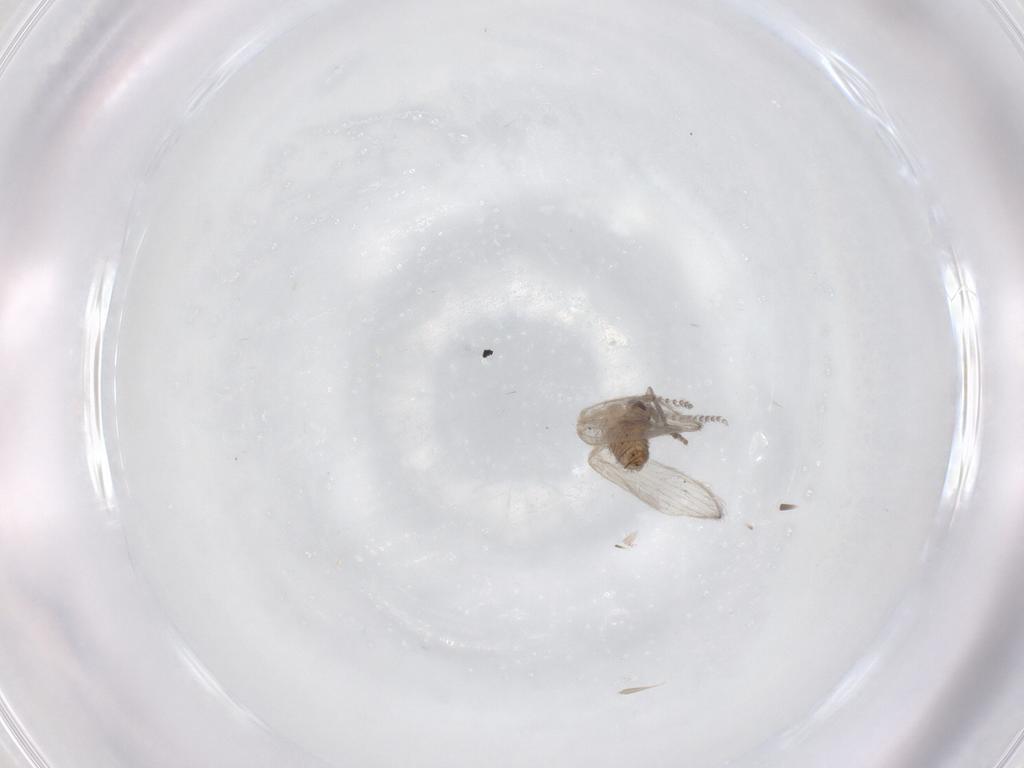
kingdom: Animalia
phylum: Arthropoda
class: Insecta
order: Diptera
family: Psychodidae
